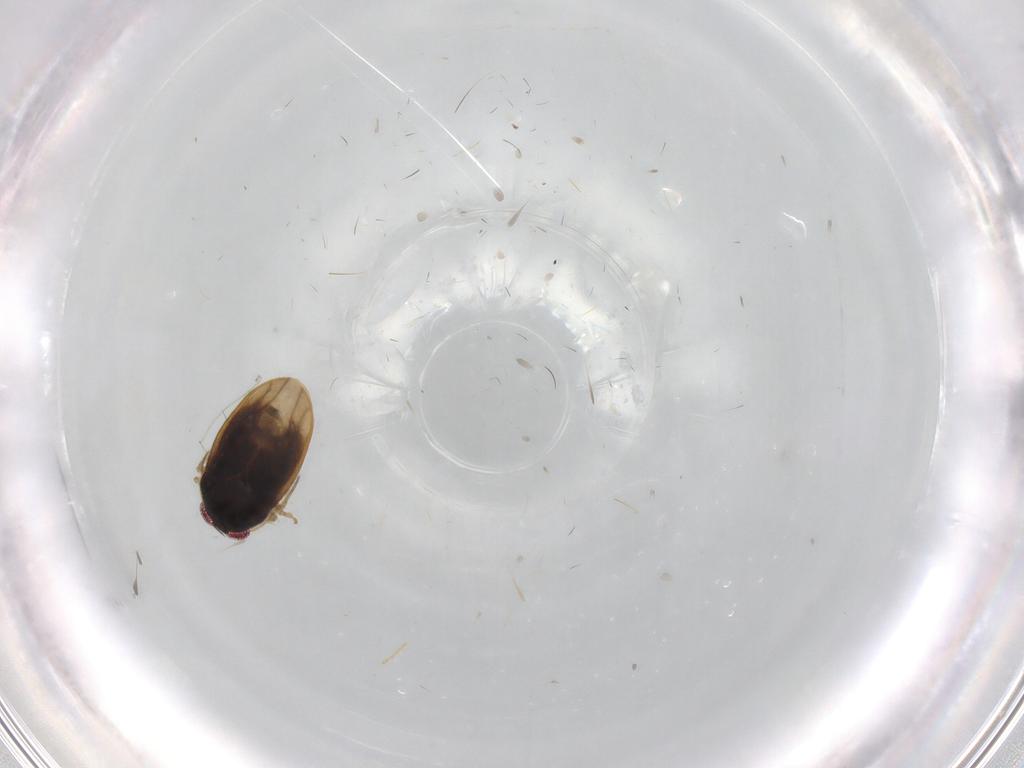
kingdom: Animalia
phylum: Arthropoda
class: Insecta
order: Hemiptera
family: Schizopteridae
